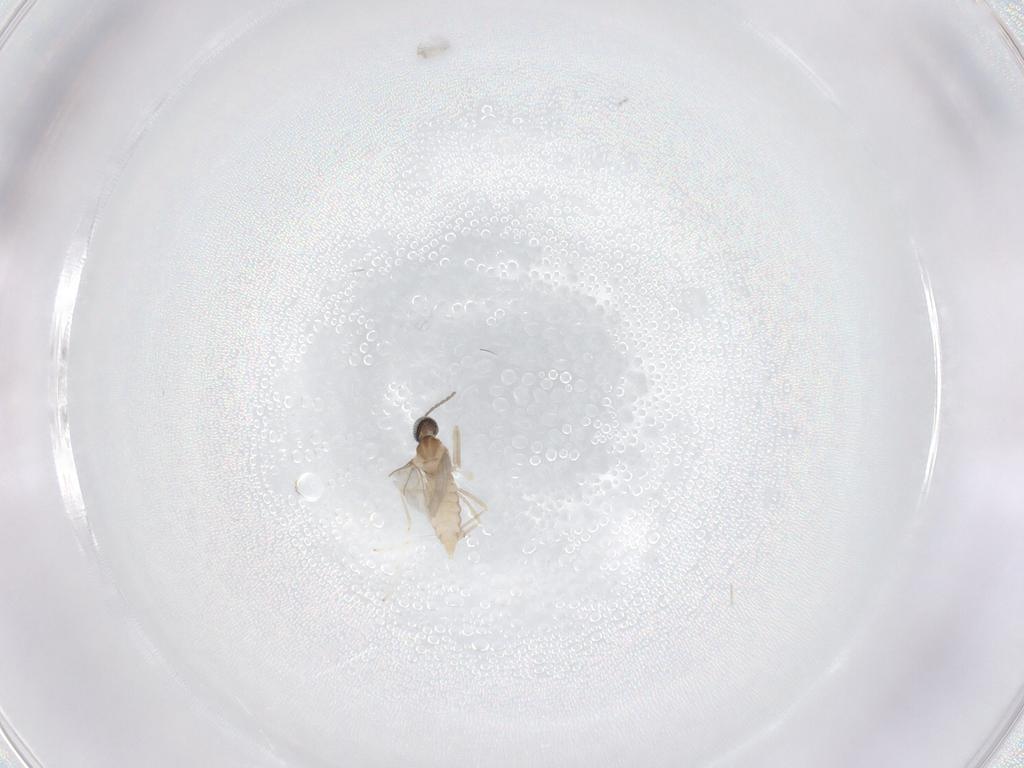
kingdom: Animalia
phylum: Arthropoda
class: Insecta
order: Diptera
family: Cecidomyiidae
